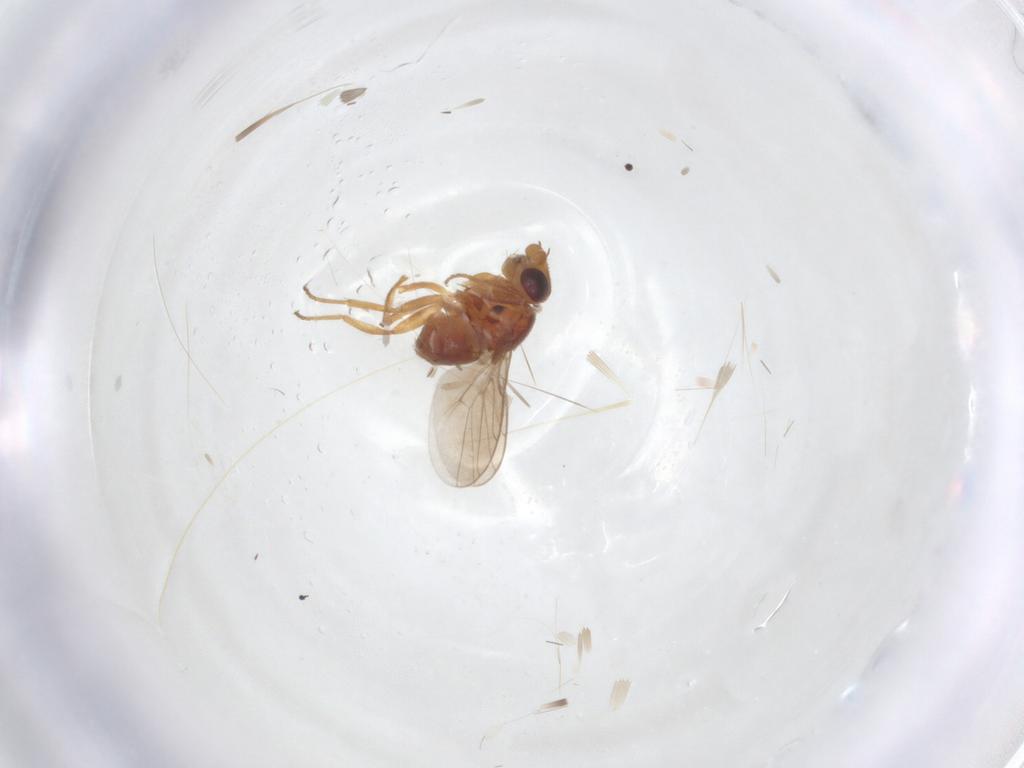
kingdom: Animalia
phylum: Arthropoda
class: Insecta
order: Diptera
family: Chloropidae
